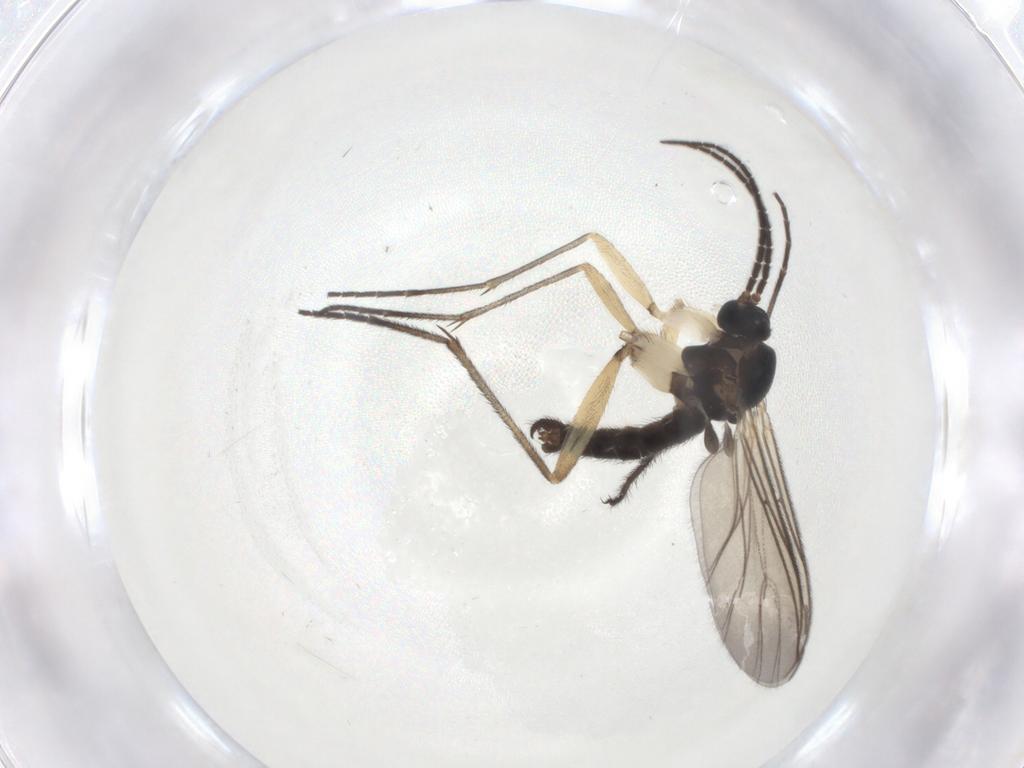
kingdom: Animalia
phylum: Arthropoda
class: Insecta
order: Diptera
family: Sciaridae
